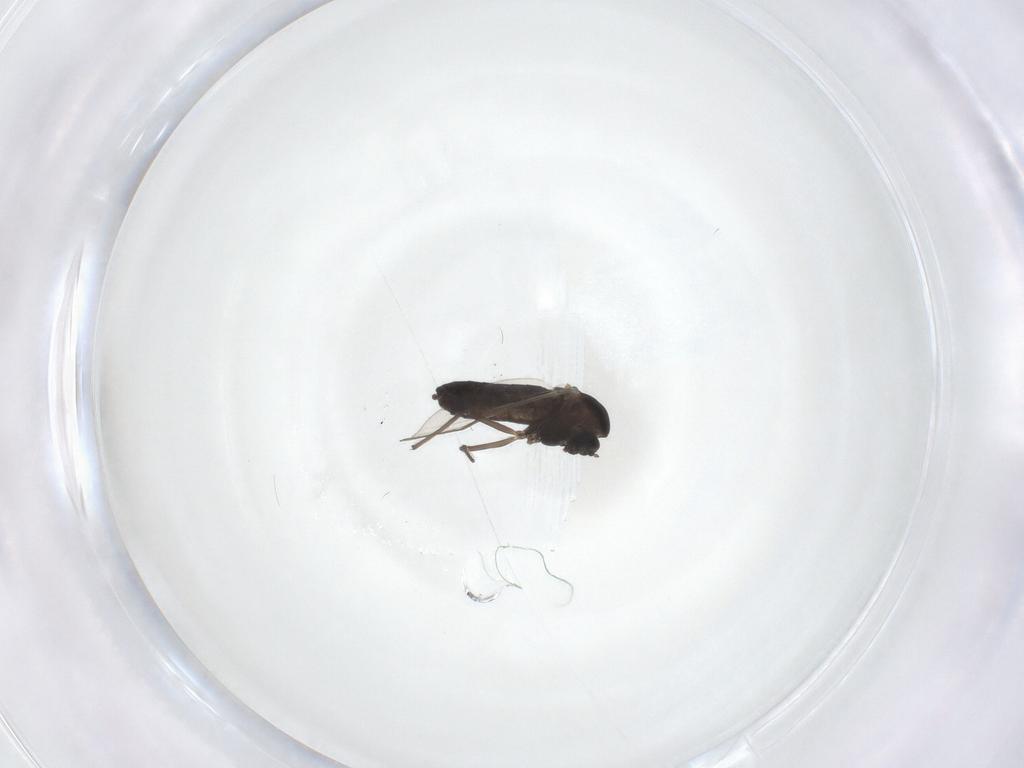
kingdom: Animalia
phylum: Arthropoda
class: Insecta
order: Diptera
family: Chironomidae
